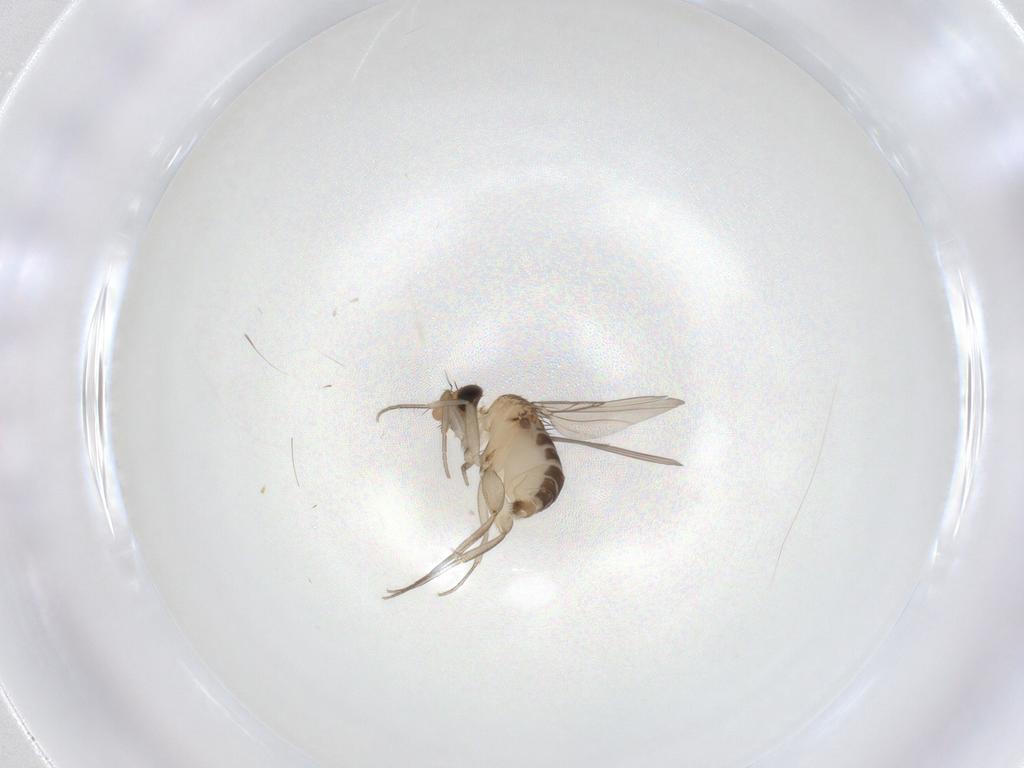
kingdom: Animalia
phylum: Arthropoda
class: Insecta
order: Diptera
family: Phoridae
